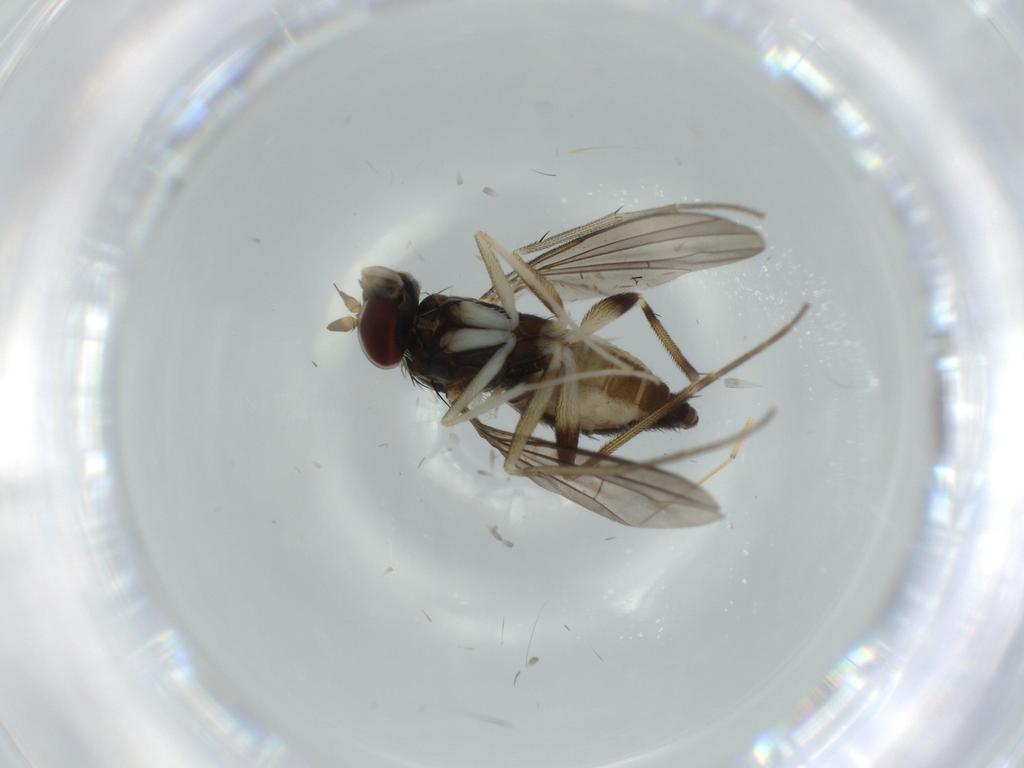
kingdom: Animalia
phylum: Arthropoda
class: Insecta
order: Diptera
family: Dolichopodidae
